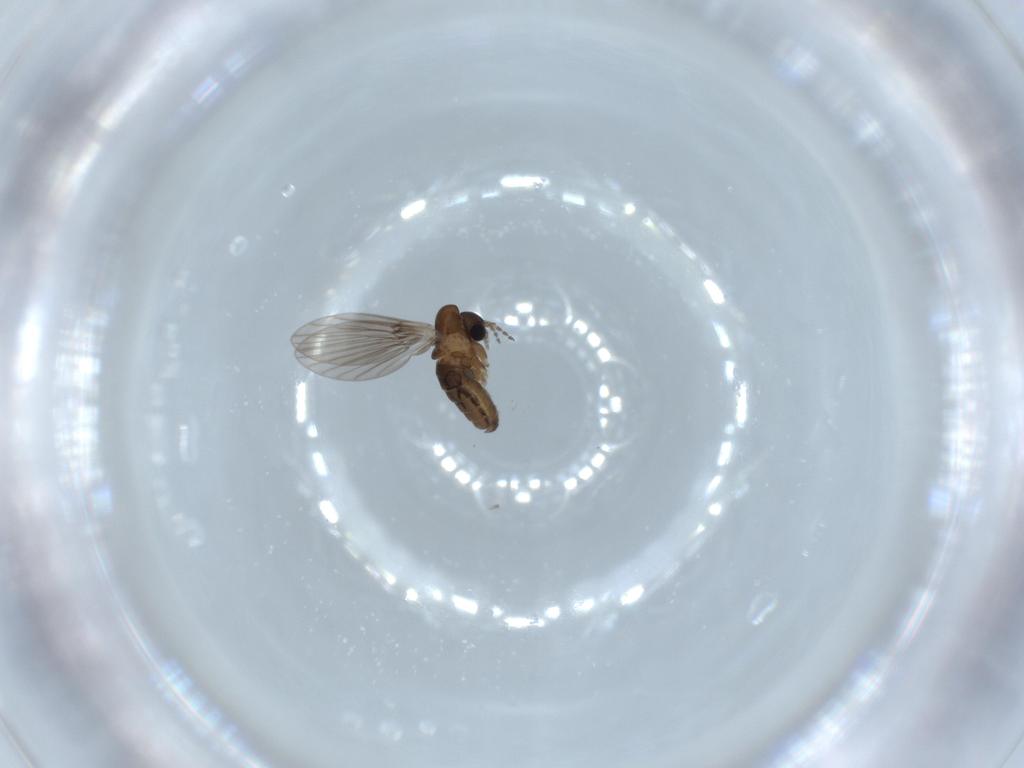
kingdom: Animalia
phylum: Arthropoda
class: Insecta
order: Diptera
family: Psychodidae
